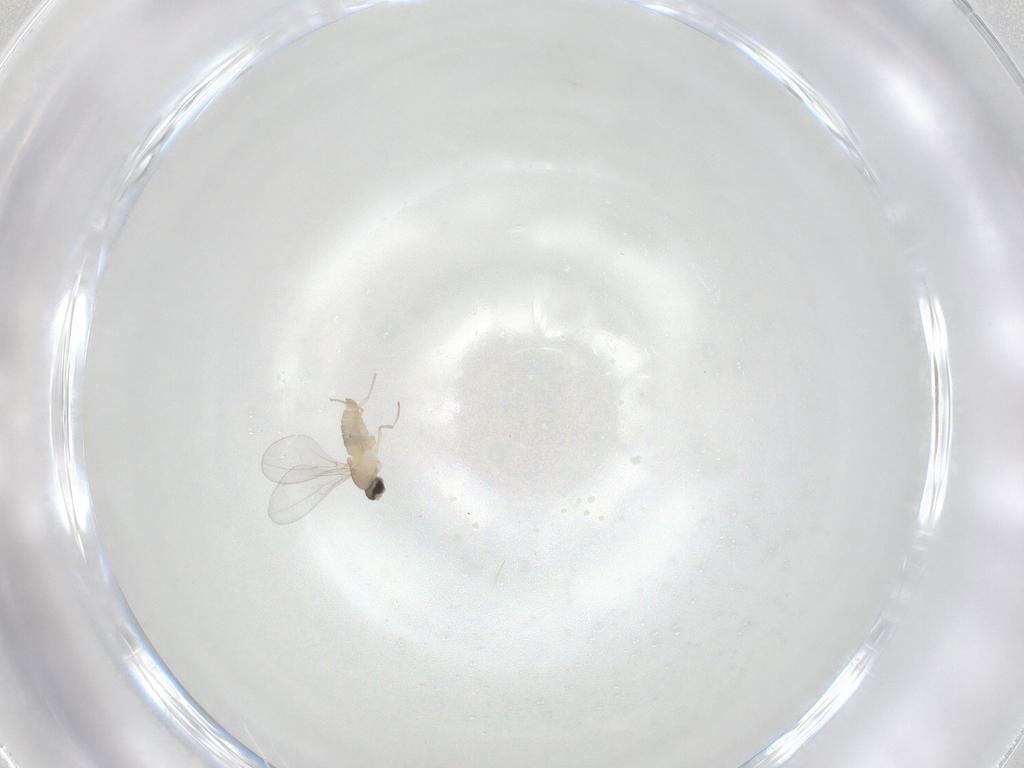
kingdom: Animalia
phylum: Arthropoda
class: Insecta
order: Diptera
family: Cecidomyiidae
